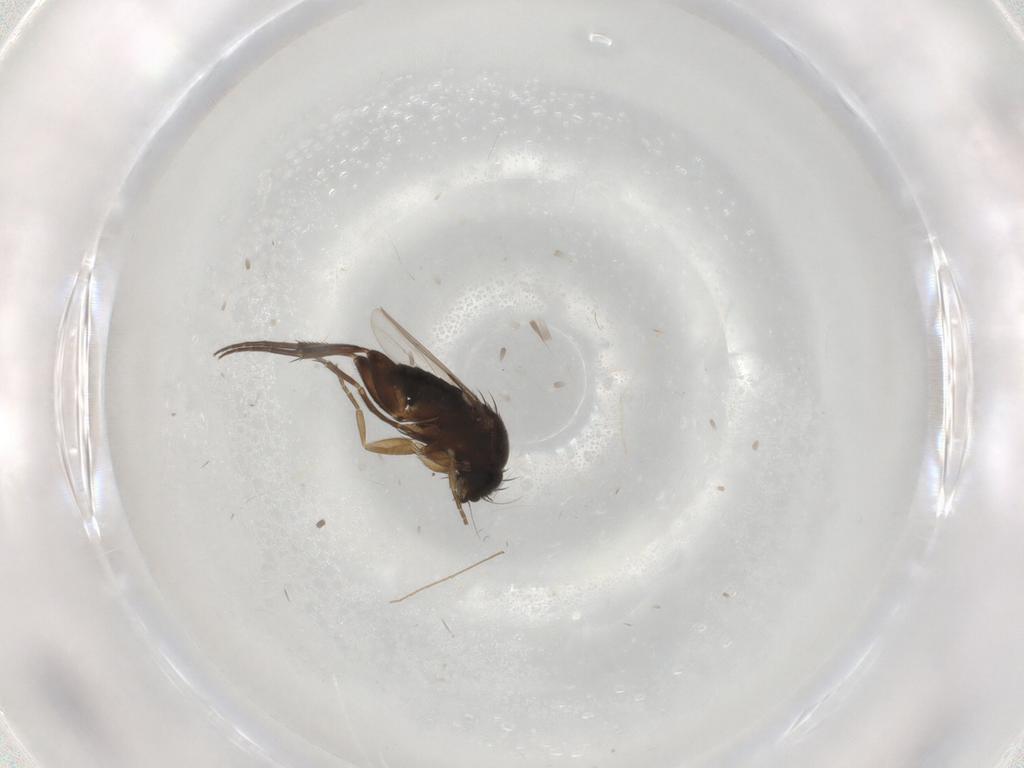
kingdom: Animalia
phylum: Arthropoda
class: Insecta
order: Diptera
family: Phoridae
